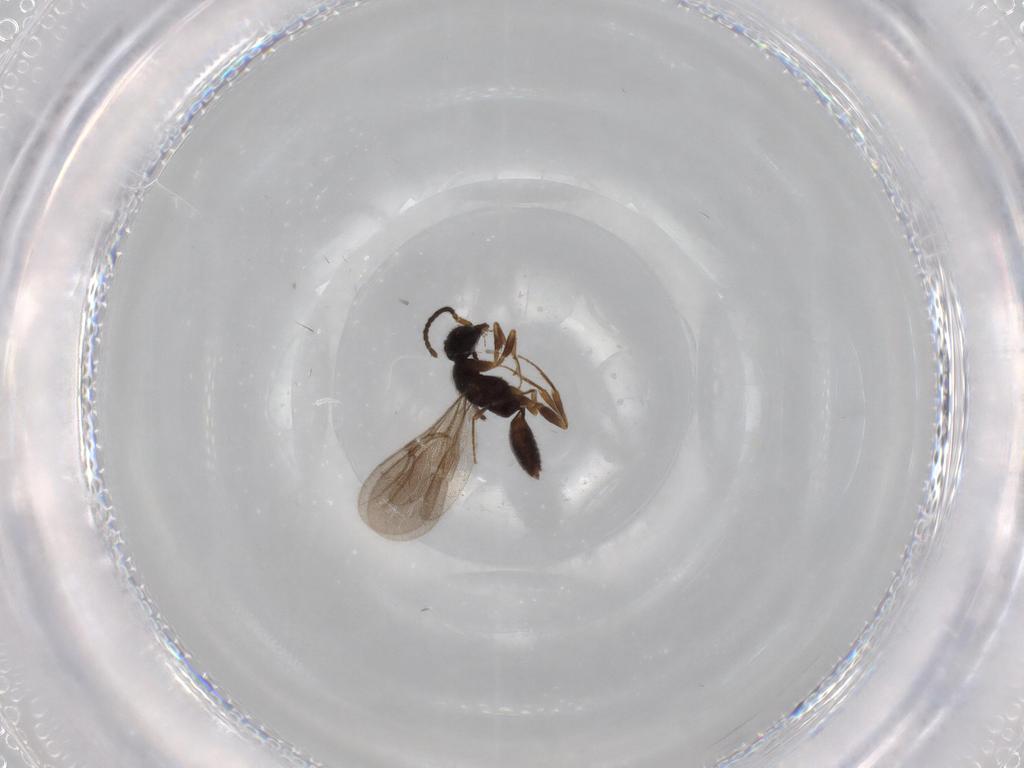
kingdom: Animalia
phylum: Arthropoda
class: Insecta
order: Hymenoptera
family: Bethylidae
